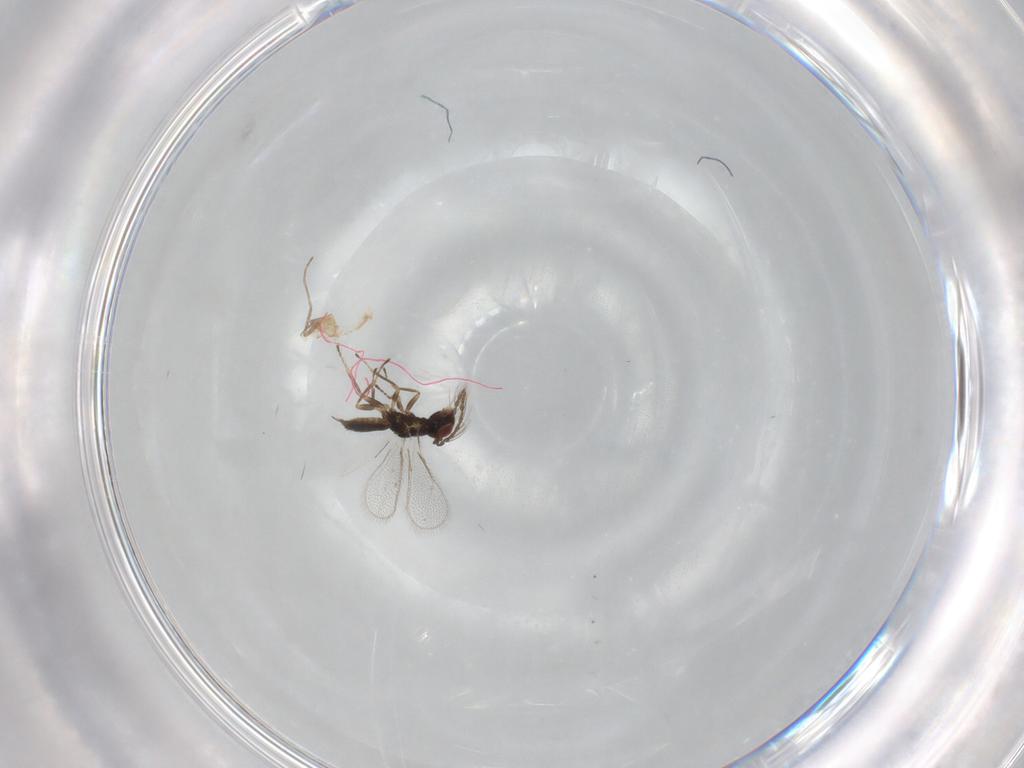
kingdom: Animalia
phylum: Arthropoda
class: Insecta
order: Hymenoptera
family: Eulophidae
